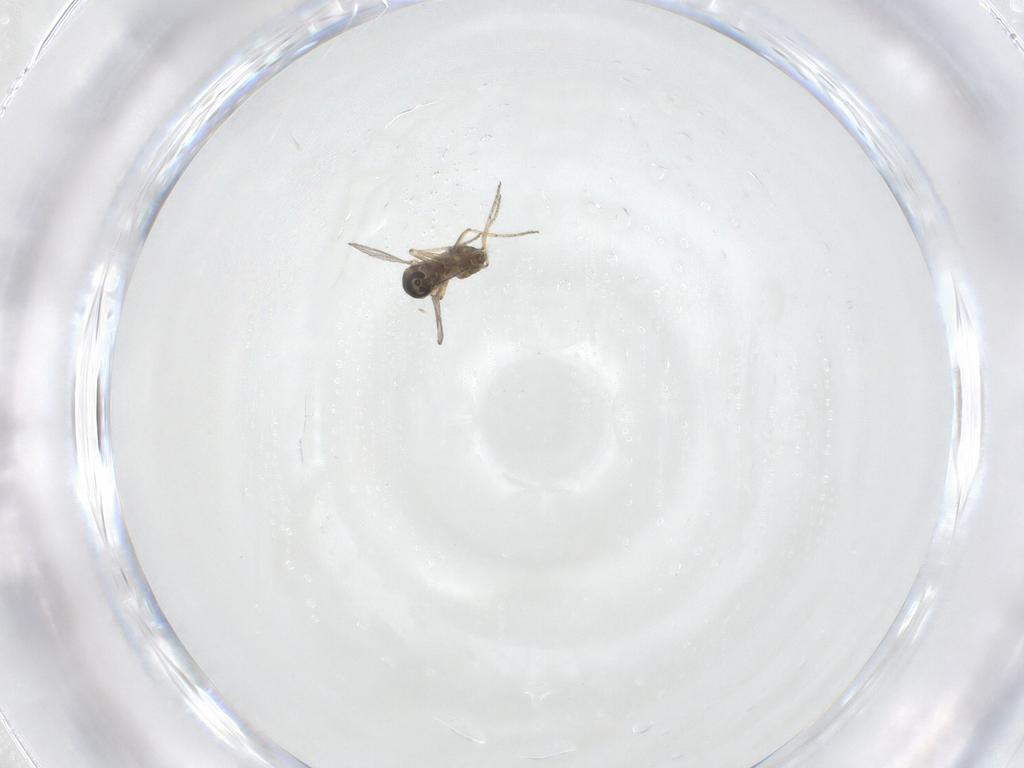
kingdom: Animalia
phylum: Arthropoda
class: Insecta
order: Diptera
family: Ceratopogonidae
